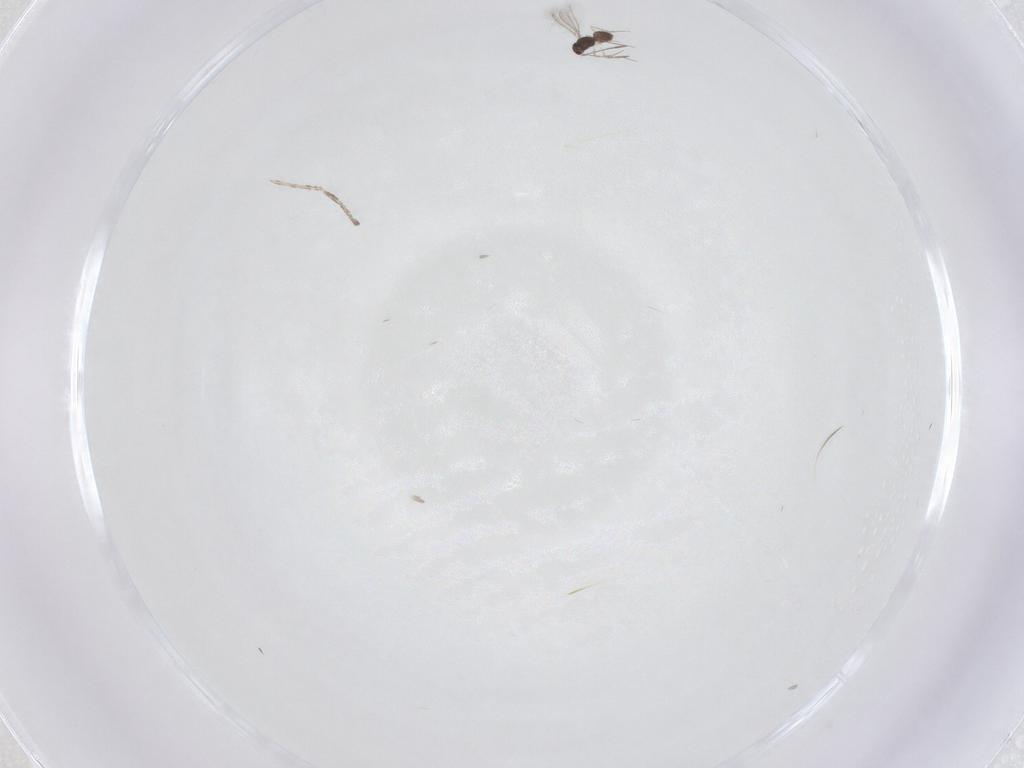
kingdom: Animalia
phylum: Arthropoda
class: Insecta
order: Hymenoptera
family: Mymaridae
